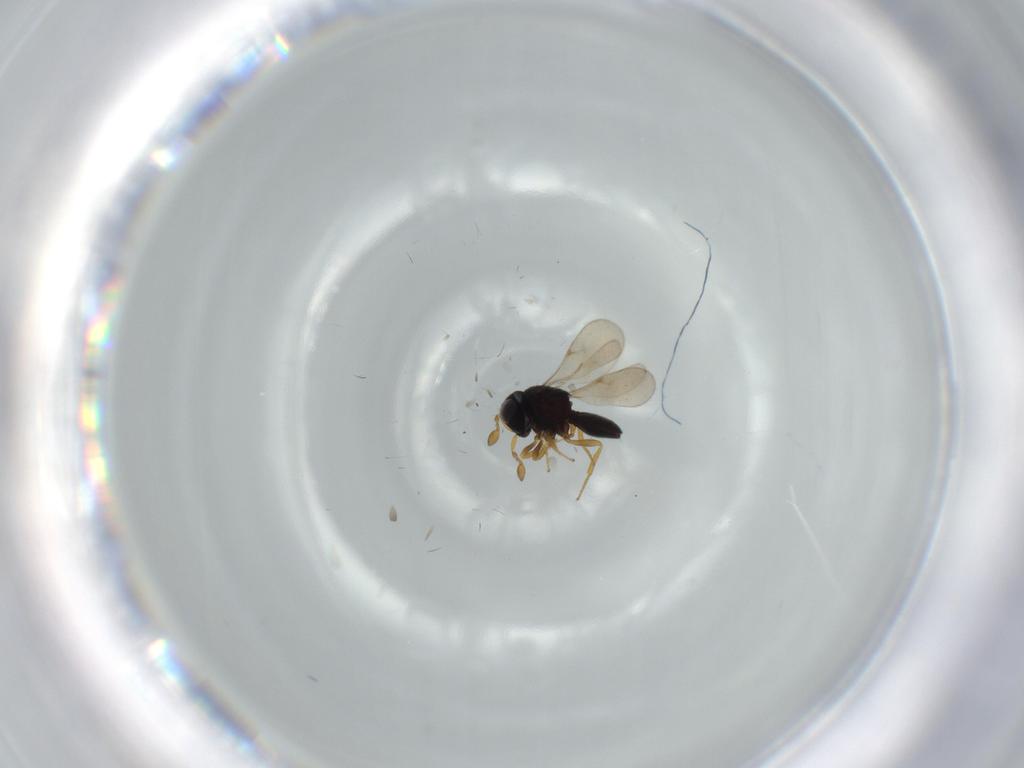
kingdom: Animalia
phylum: Arthropoda
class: Insecta
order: Hymenoptera
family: Scelionidae
